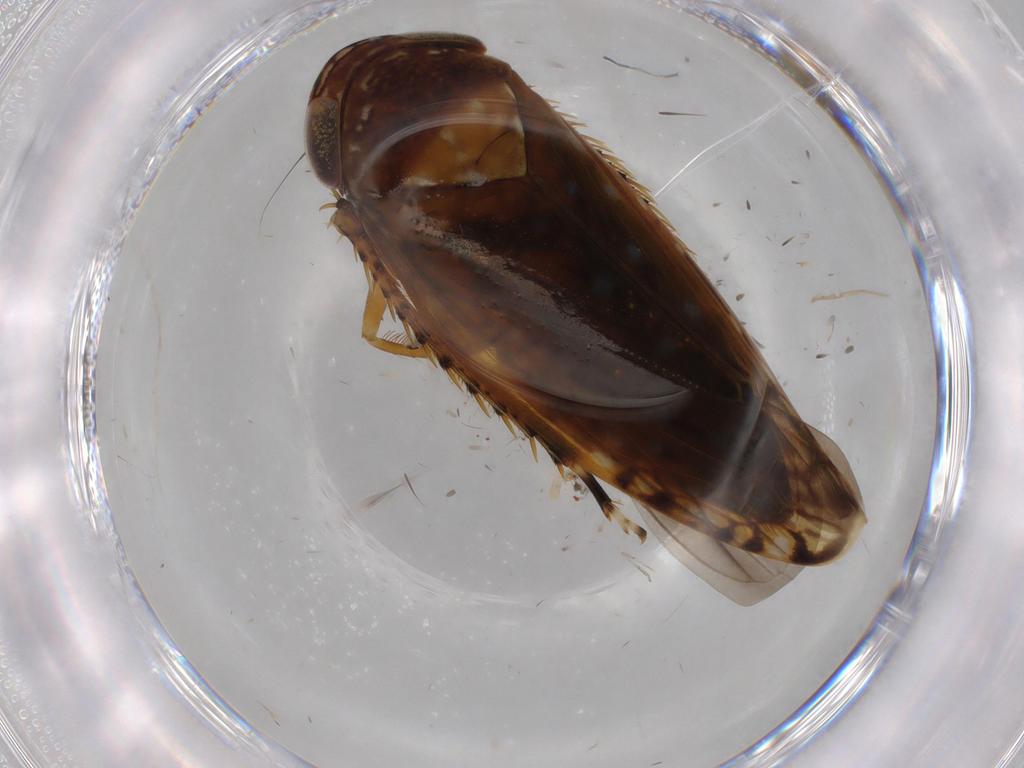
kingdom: Animalia
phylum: Arthropoda
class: Insecta
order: Hemiptera
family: Cicadellidae
